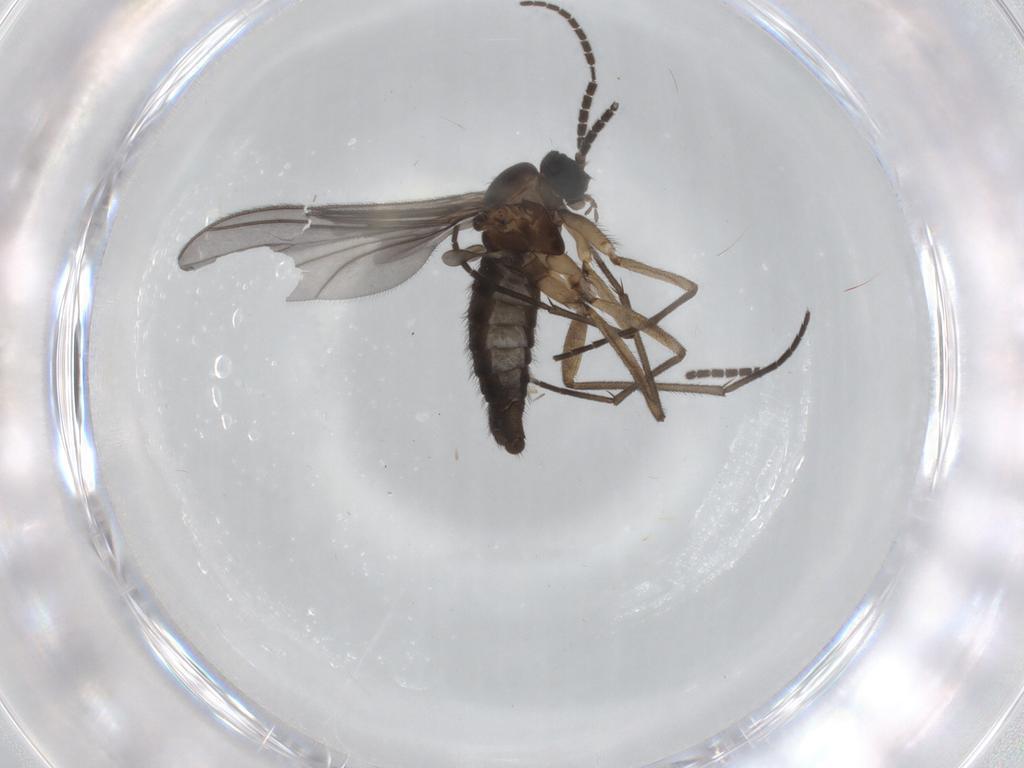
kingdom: Animalia
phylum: Arthropoda
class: Insecta
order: Diptera
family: Sciaridae
